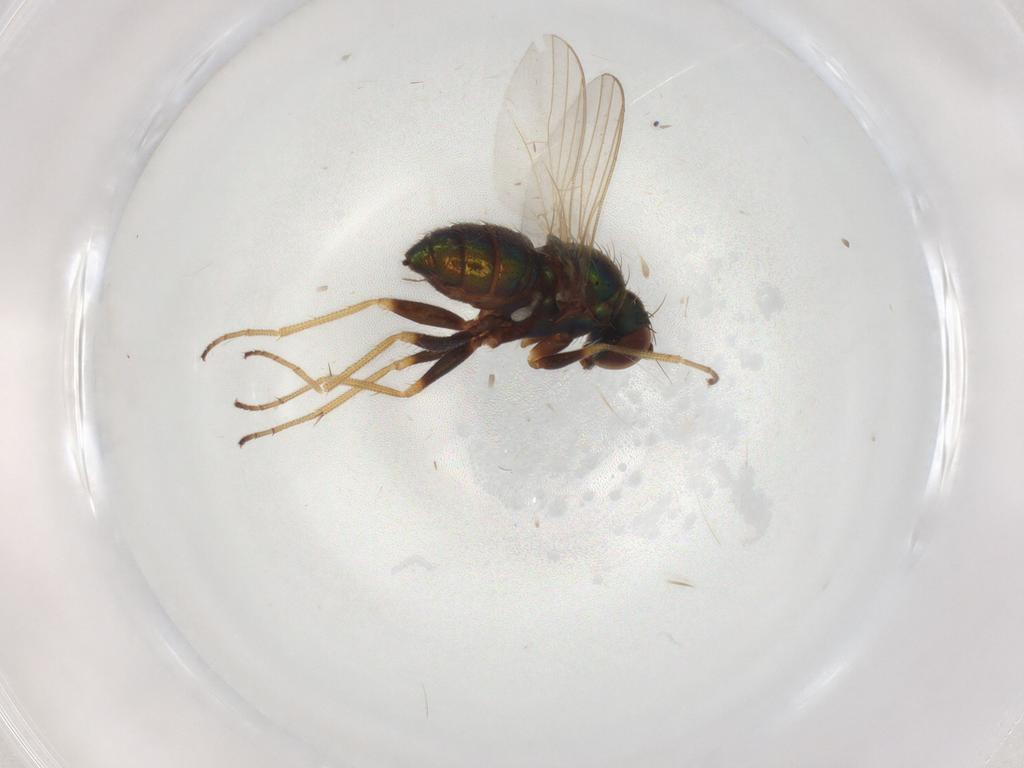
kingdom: Animalia
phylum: Arthropoda
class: Insecta
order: Diptera
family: Dolichopodidae
